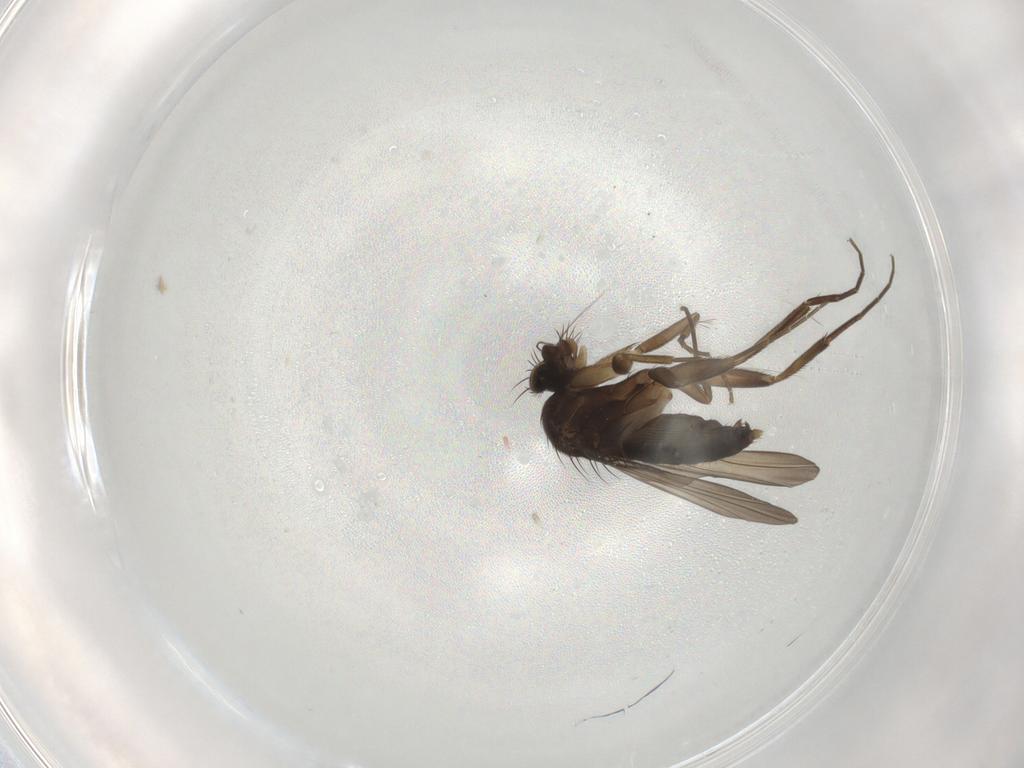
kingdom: Animalia
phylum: Arthropoda
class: Insecta
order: Diptera
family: Phoridae
